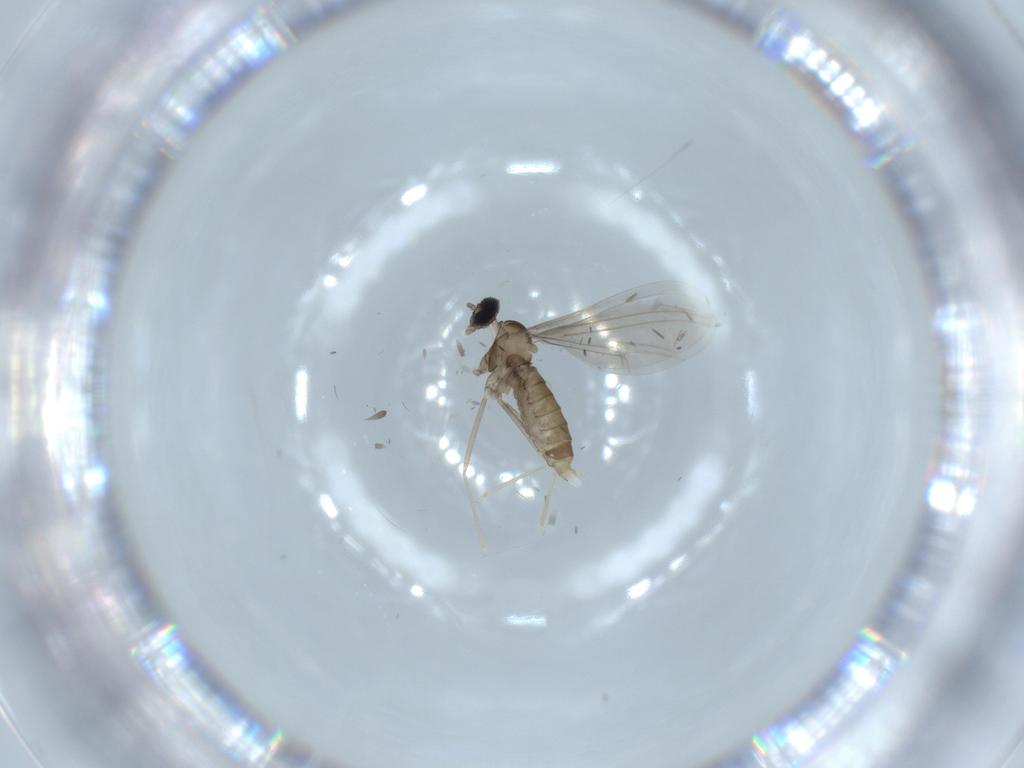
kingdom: Animalia
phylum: Arthropoda
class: Insecta
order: Diptera
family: Cecidomyiidae
